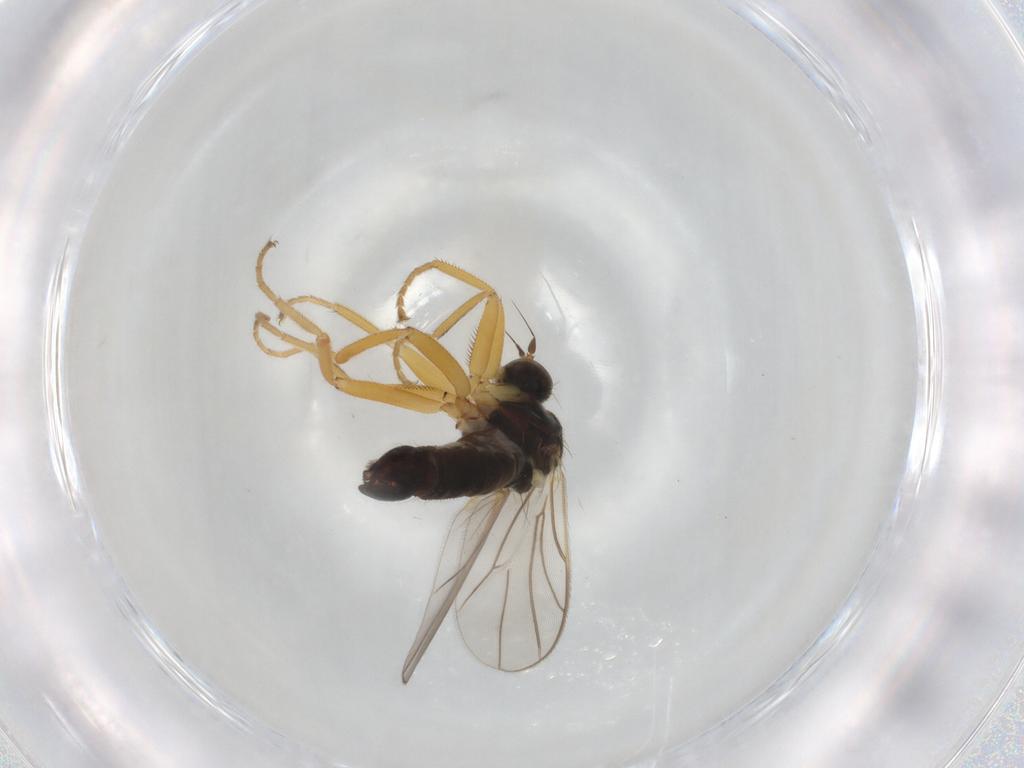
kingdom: Animalia
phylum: Arthropoda
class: Insecta
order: Diptera
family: Hybotidae
